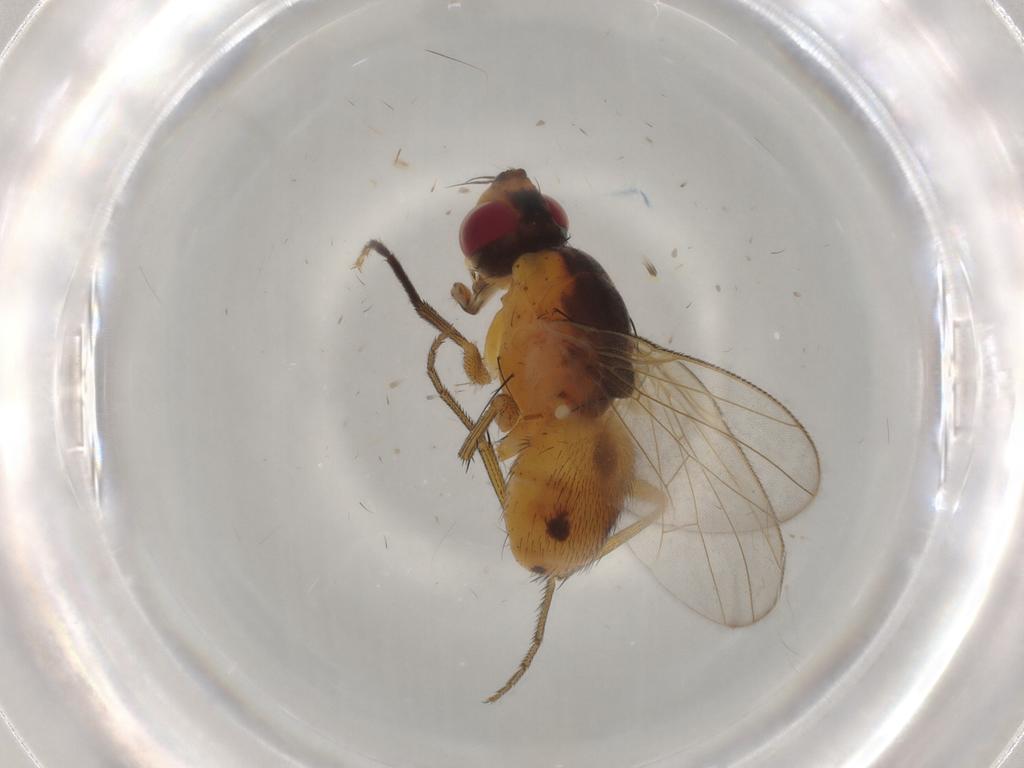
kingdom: Animalia
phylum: Arthropoda
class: Insecta
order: Diptera
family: Muscidae
